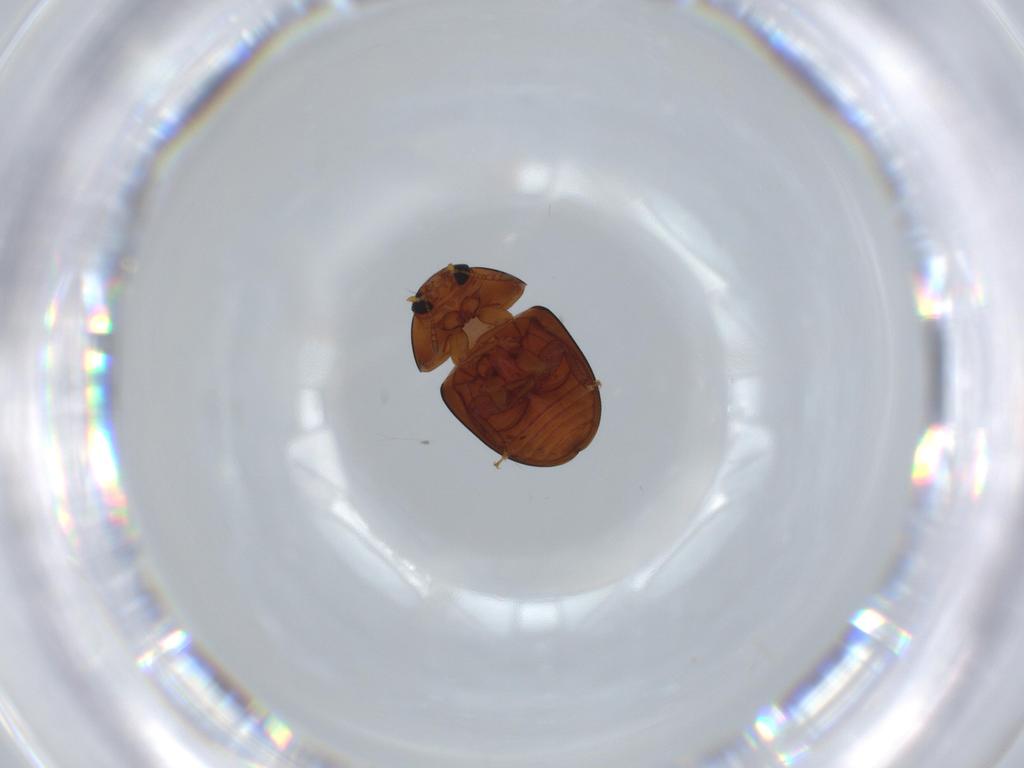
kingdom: Animalia
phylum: Arthropoda
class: Insecta
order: Coleoptera
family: Phalacridae
